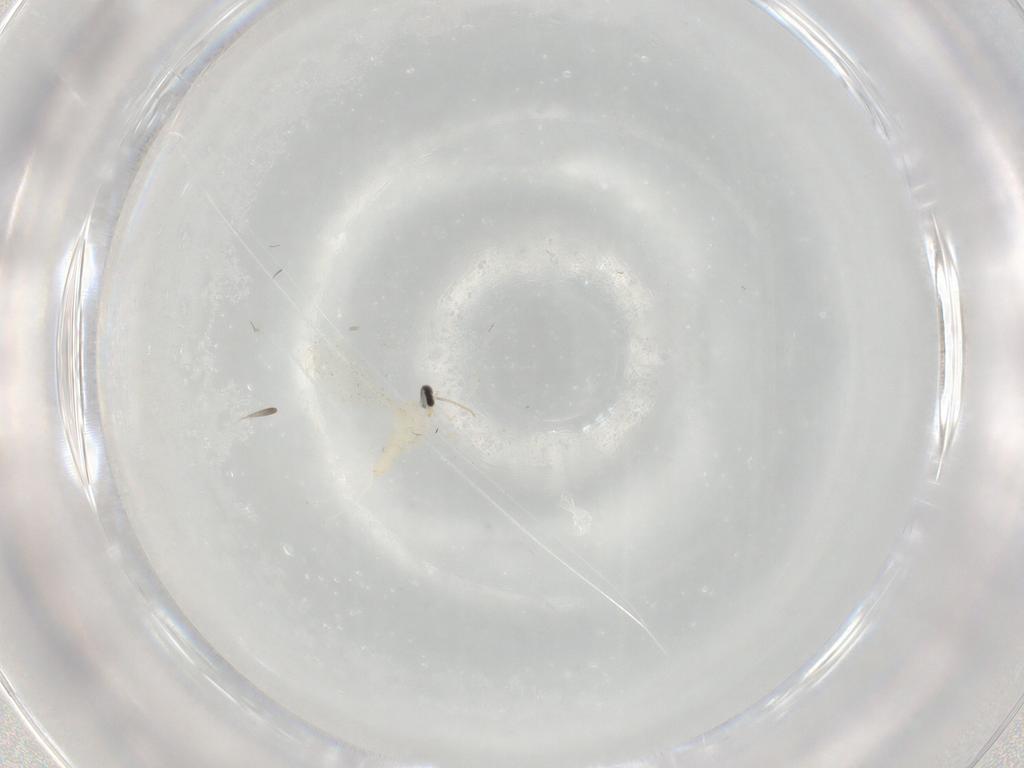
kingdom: Animalia
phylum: Arthropoda
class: Insecta
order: Diptera
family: Cecidomyiidae
